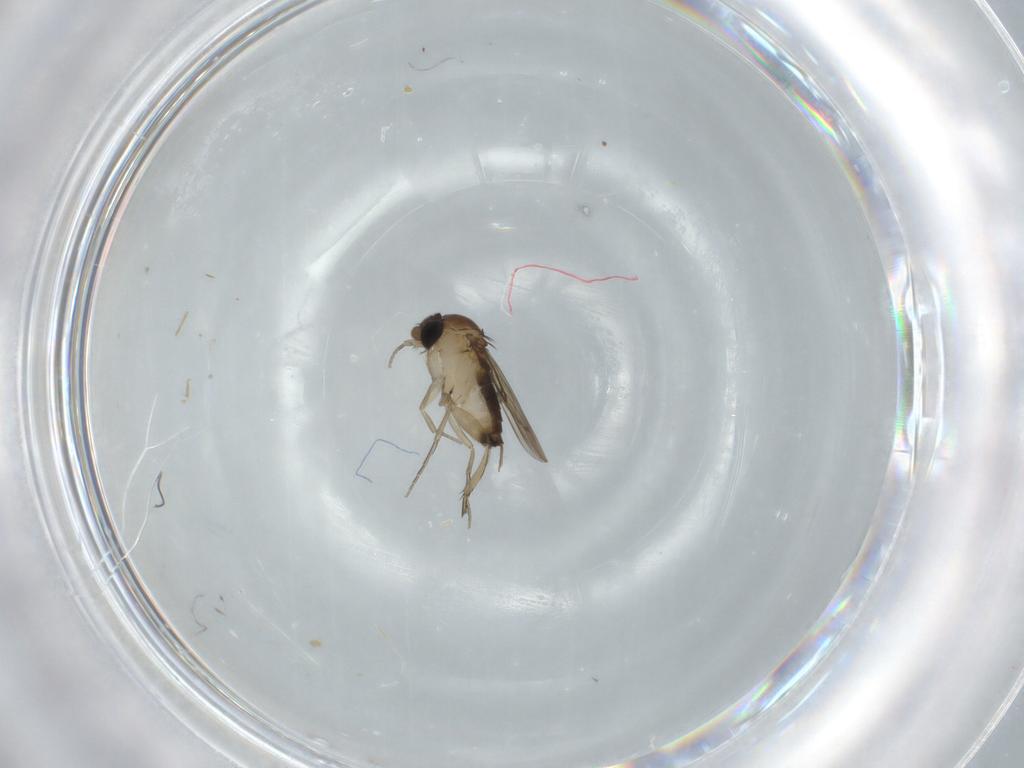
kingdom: Animalia
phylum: Arthropoda
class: Insecta
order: Diptera
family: Phoridae
